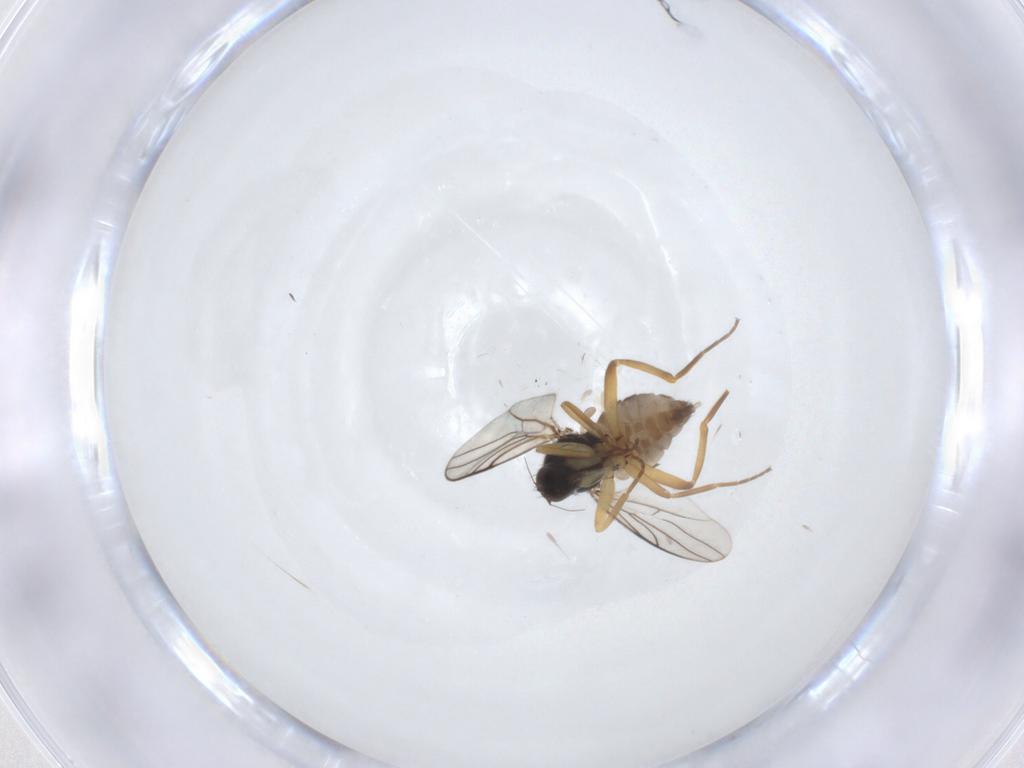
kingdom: Animalia
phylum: Arthropoda
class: Insecta
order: Diptera
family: Hybotidae
